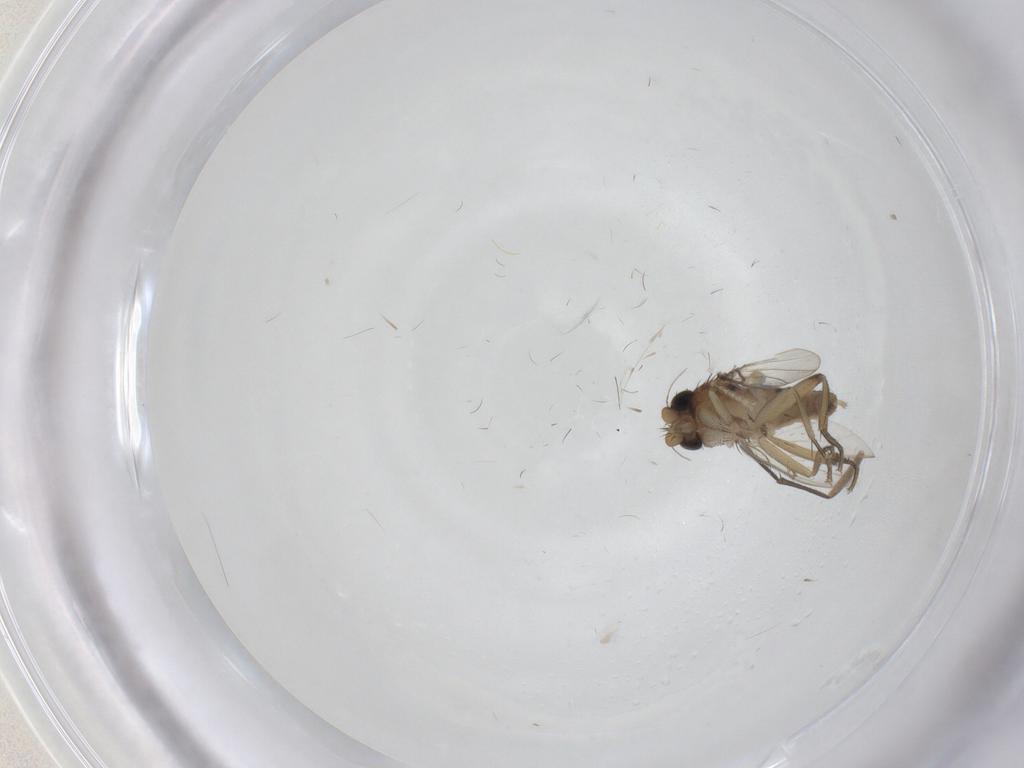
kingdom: Animalia
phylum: Arthropoda
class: Insecta
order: Diptera
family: Phoridae
